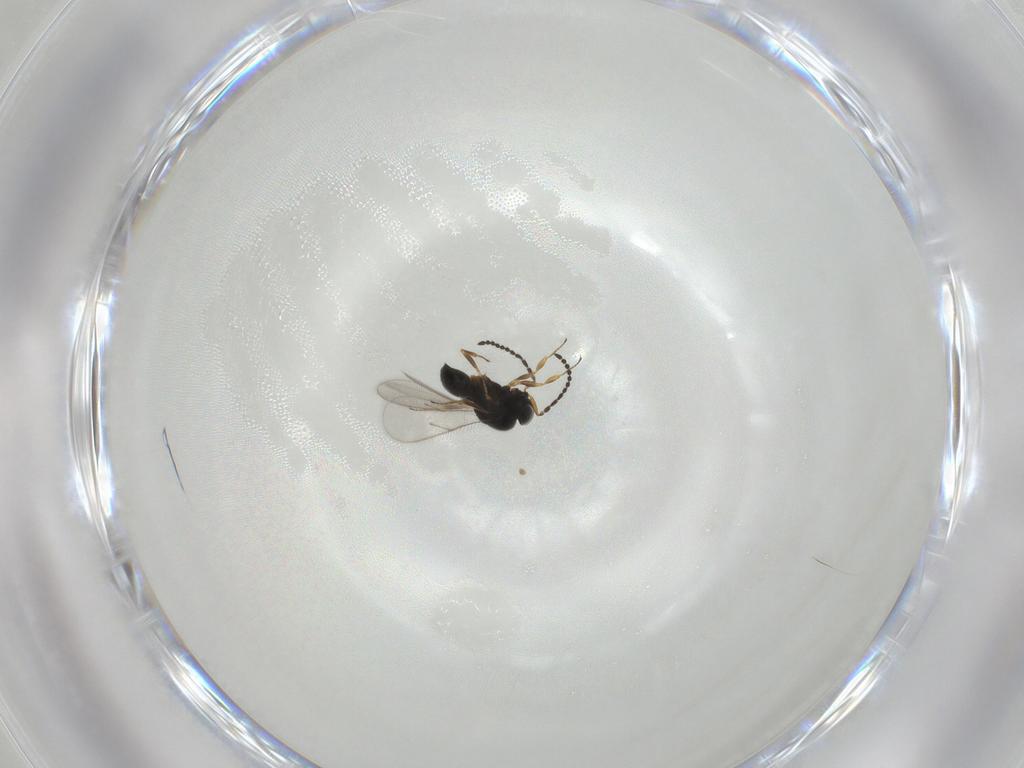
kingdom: Animalia
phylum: Arthropoda
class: Insecta
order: Hymenoptera
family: Scelionidae
